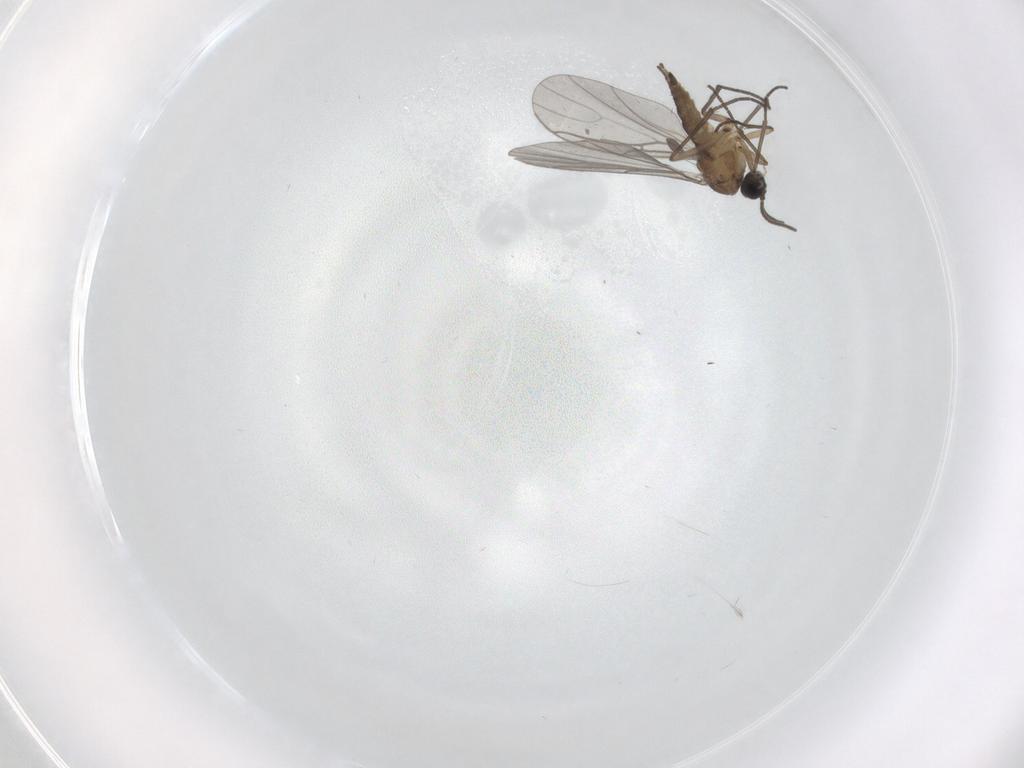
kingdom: Animalia
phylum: Arthropoda
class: Insecta
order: Diptera
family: Sciaridae
